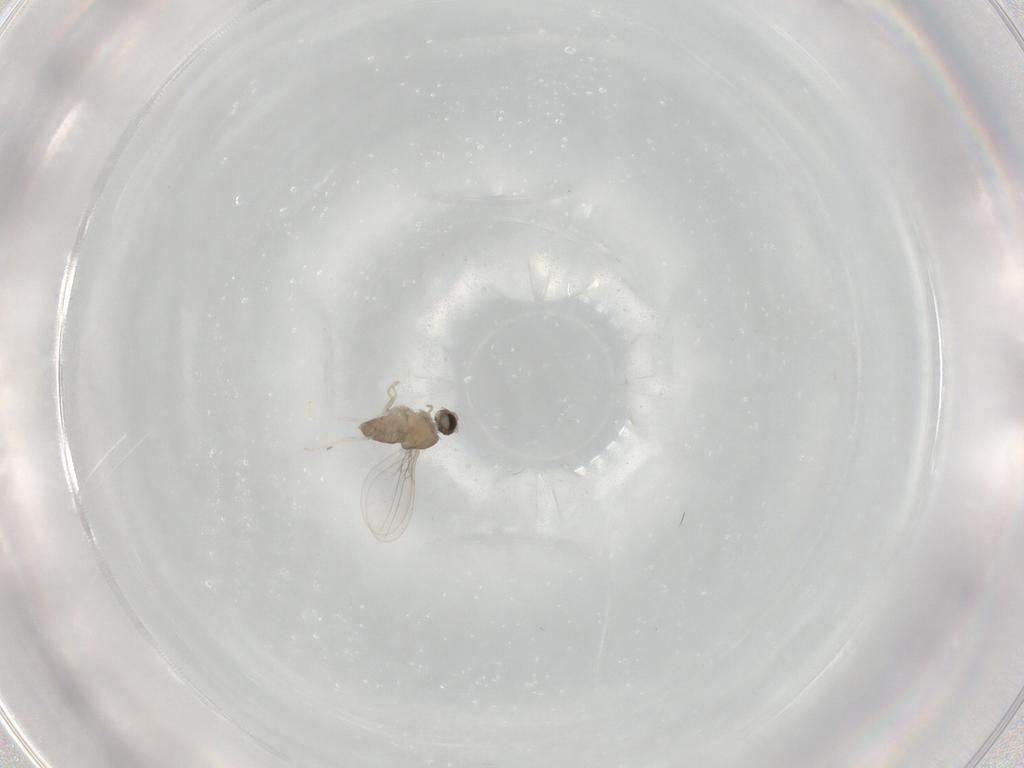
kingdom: Animalia
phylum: Arthropoda
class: Insecta
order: Diptera
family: Cecidomyiidae
